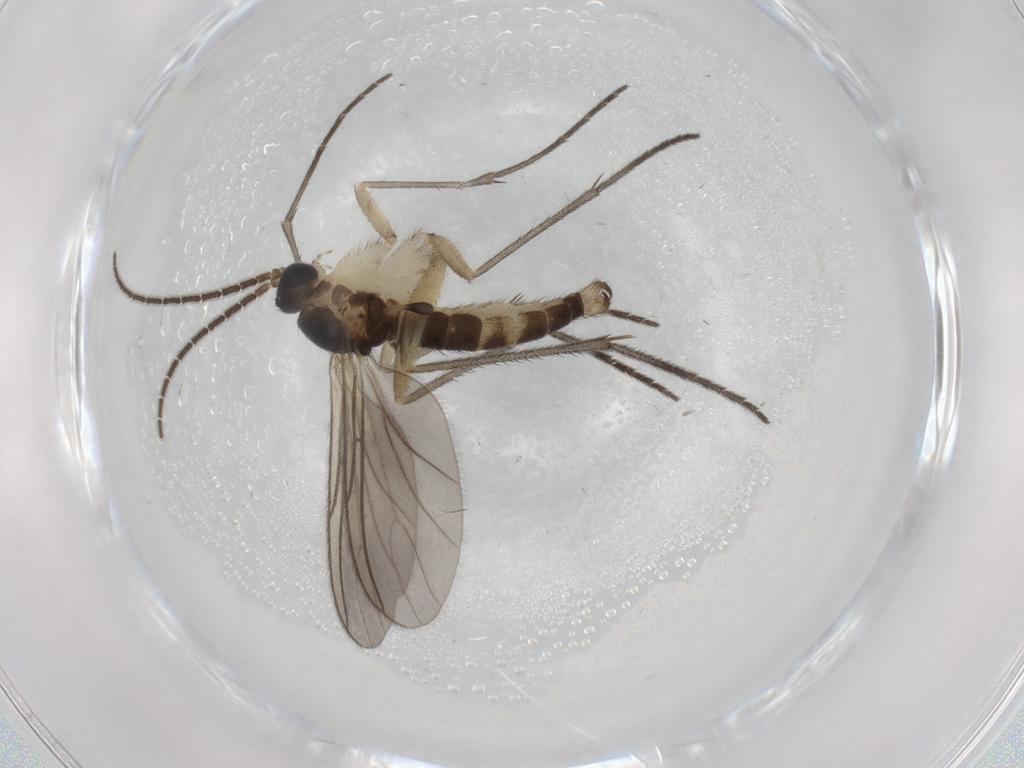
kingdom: Animalia
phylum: Arthropoda
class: Insecta
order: Diptera
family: Sciaridae
